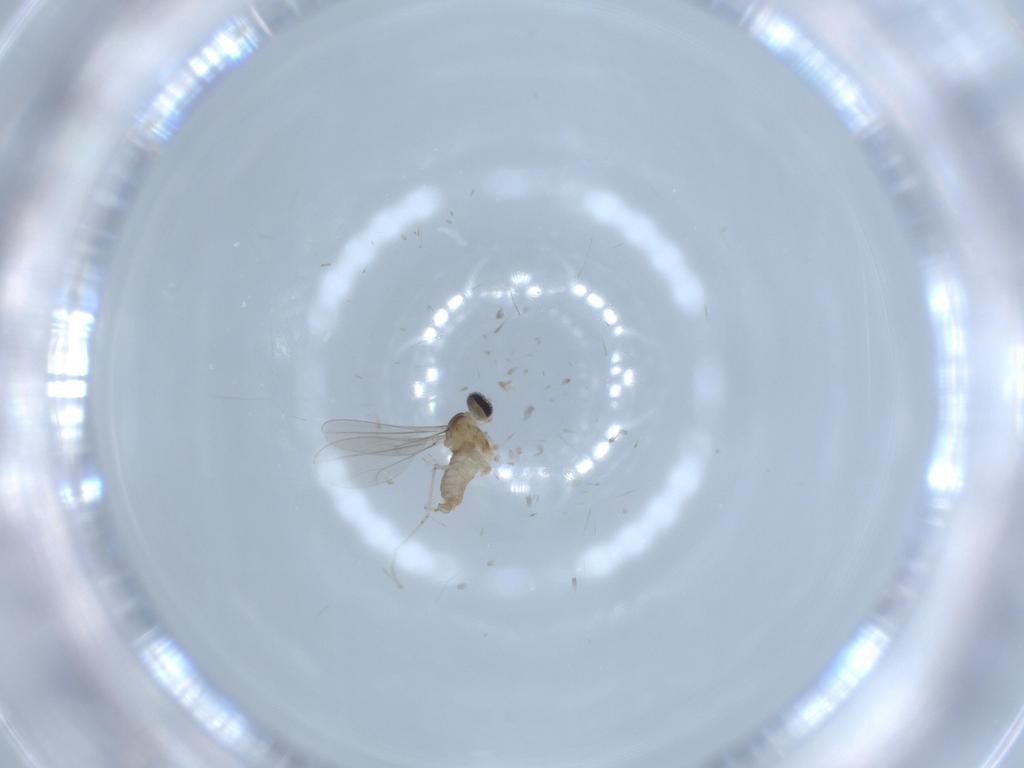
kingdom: Animalia
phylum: Arthropoda
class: Insecta
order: Diptera
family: Cecidomyiidae
